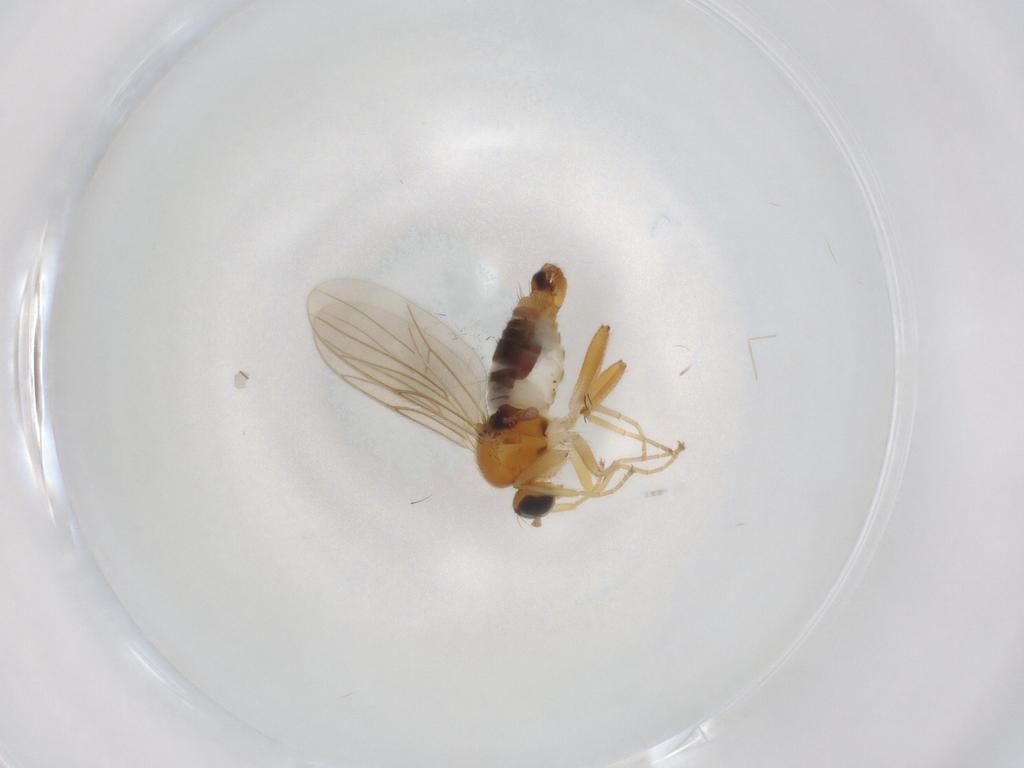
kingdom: Animalia
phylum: Arthropoda
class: Insecta
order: Diptera
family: Hybotidae
